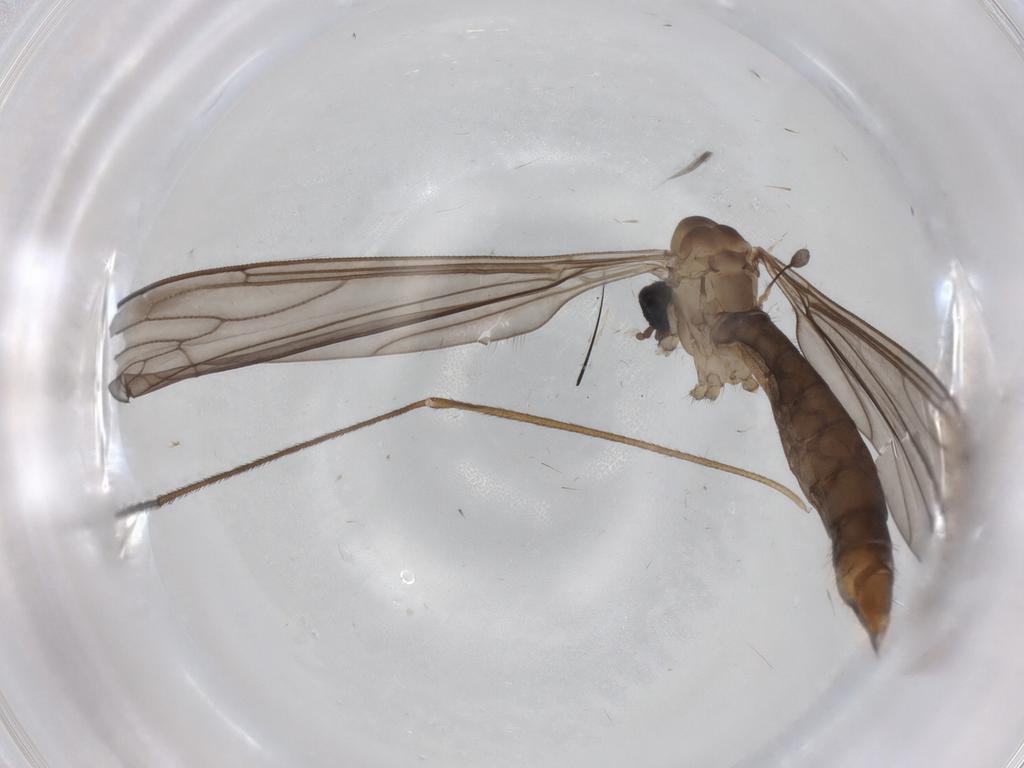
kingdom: Animalia
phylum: Arthropoda
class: Insecta
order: Diptera
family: Limoniidae
